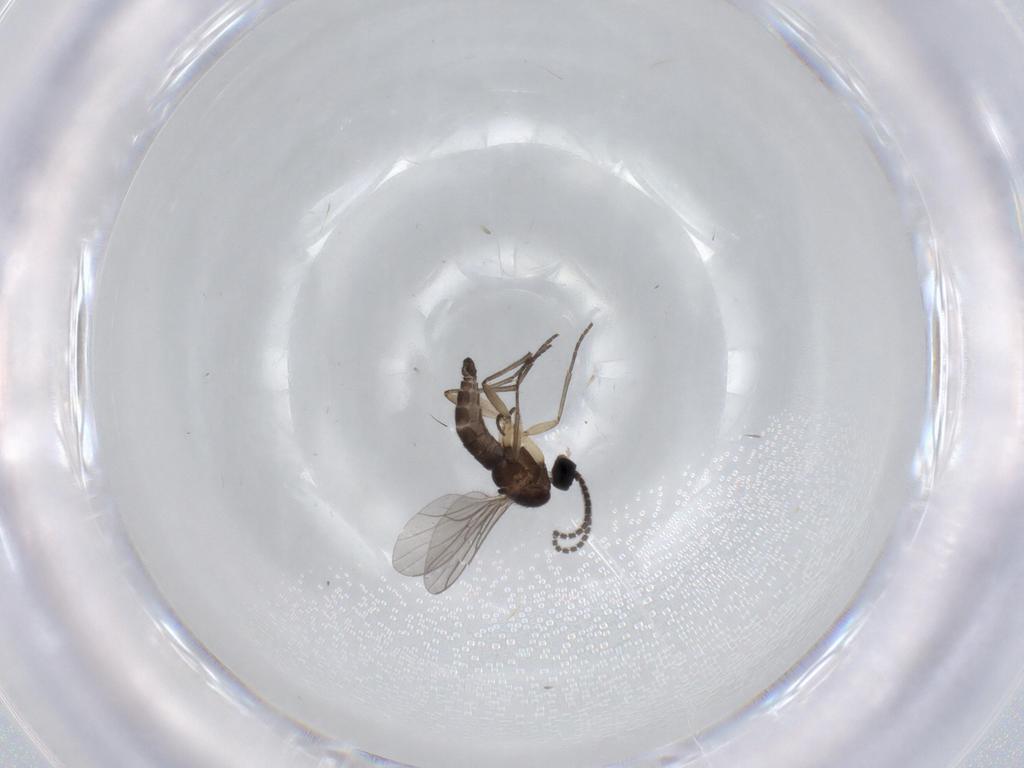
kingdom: Animalia
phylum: Arthropoda
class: Insecta
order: Diptera
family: Sciaridae
